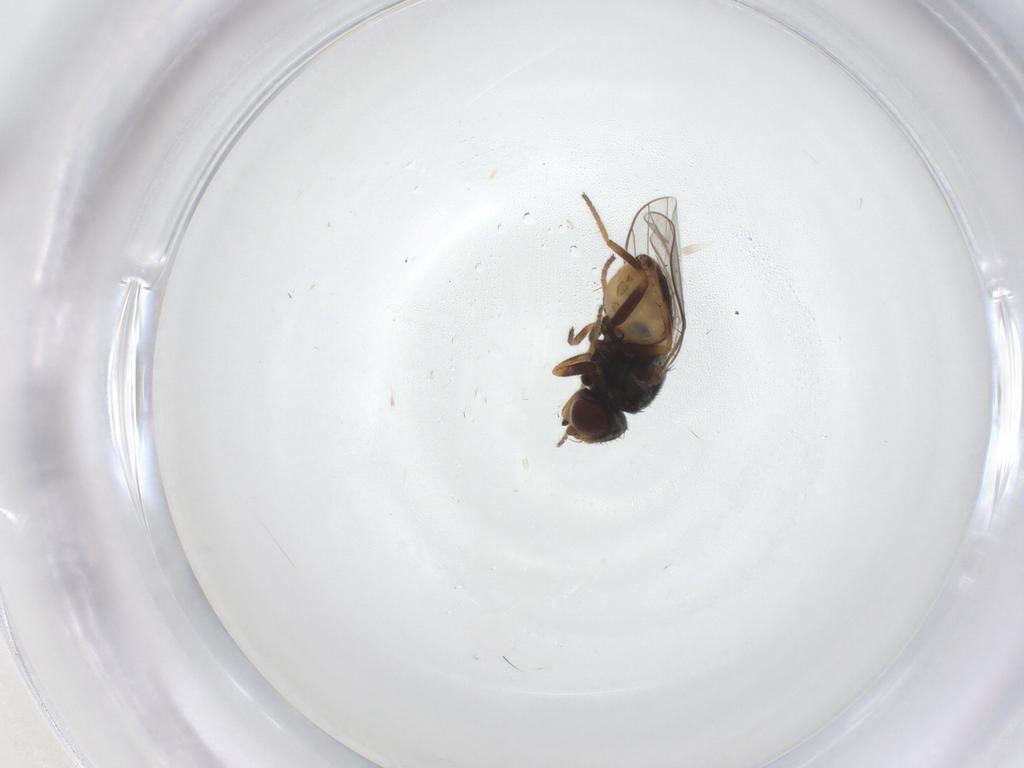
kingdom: Animalia
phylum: Arthropoda
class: Insecta
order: Diptera
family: Chloropidae
